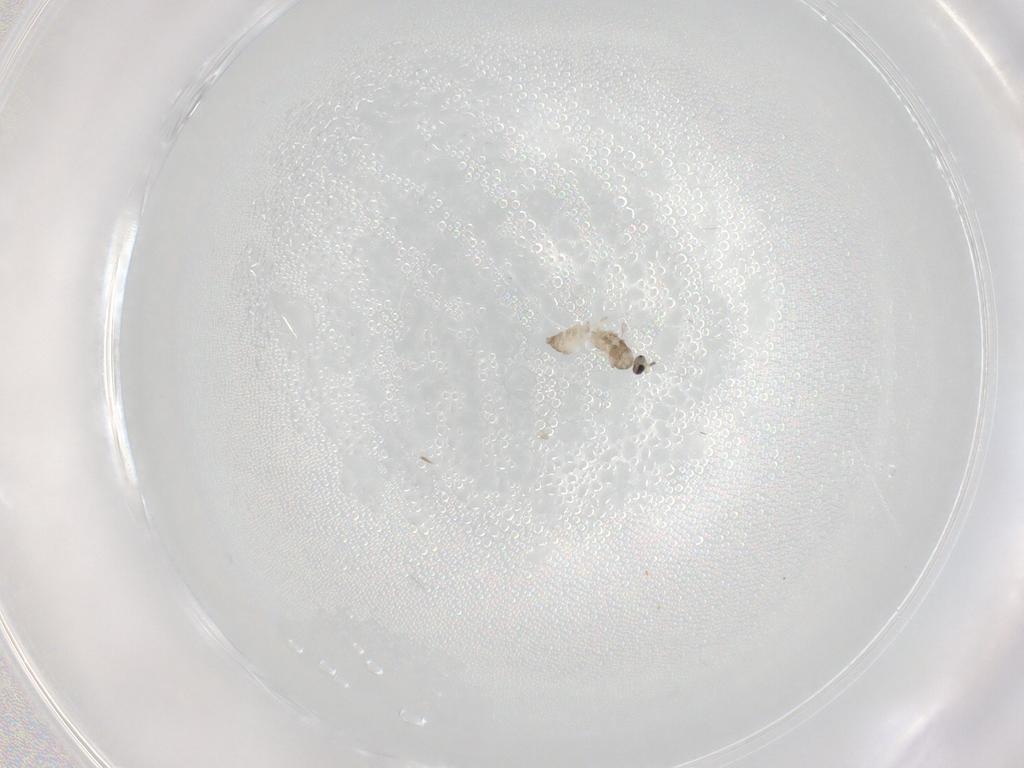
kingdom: Animalia
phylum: Arthropoda
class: Insecta
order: Diptera
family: Cecidomyiidae
